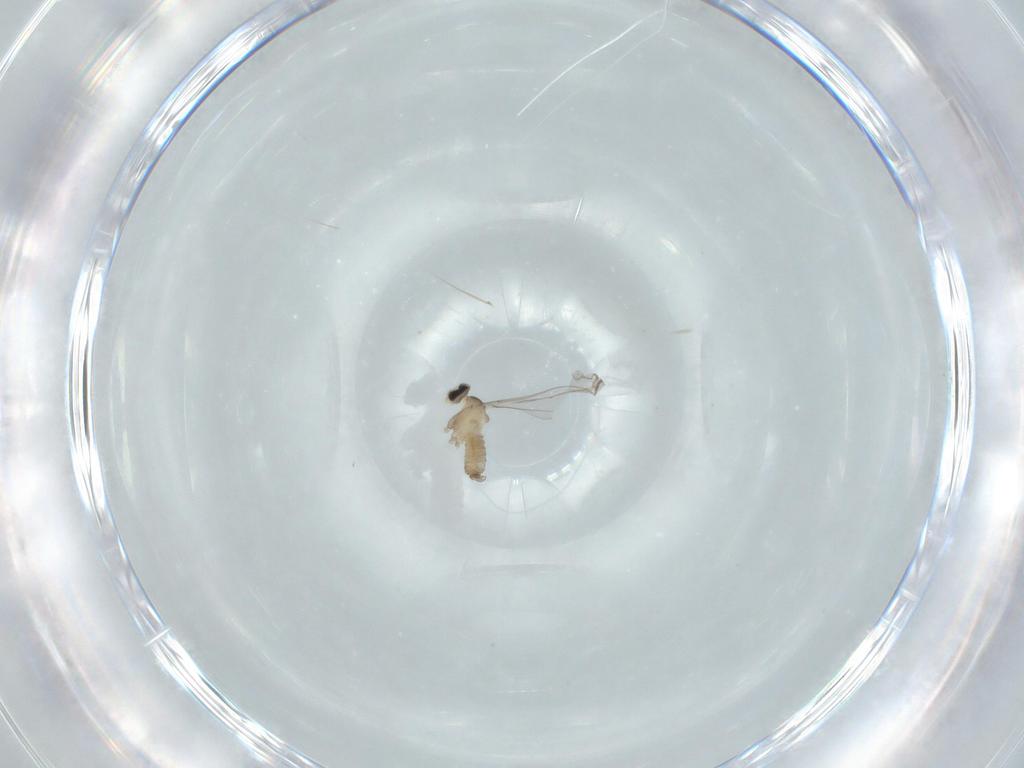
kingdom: Animalia
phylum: Arthropoda
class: Insecta
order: Diptera
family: Cecidomyiidae
